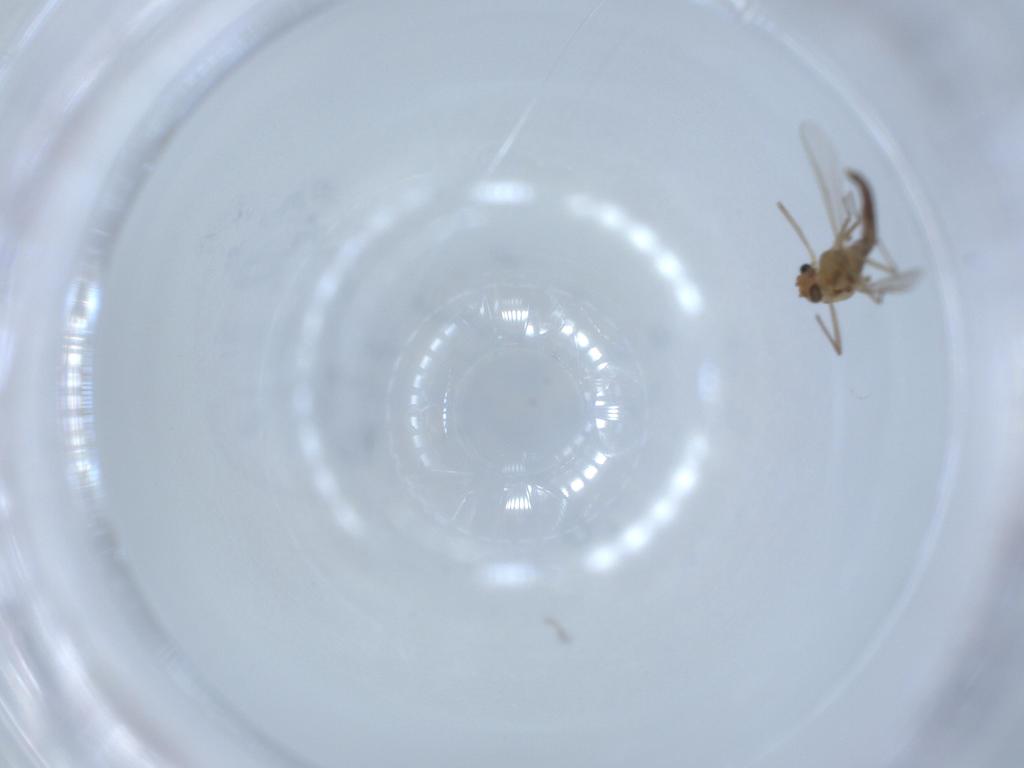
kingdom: Animalia
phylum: Arthropoda
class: Insecta
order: Diptera
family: Chironomidae
